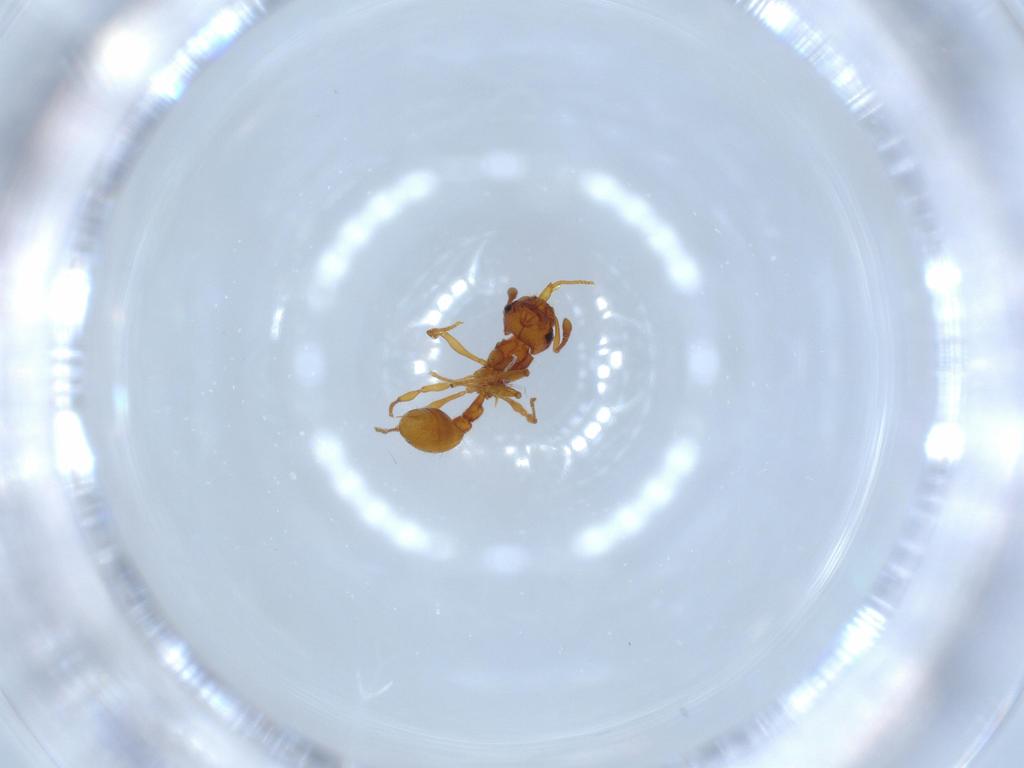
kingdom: Animalia
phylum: Arthropoda
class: Insecta
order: Hymenoptera
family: Formicidae
